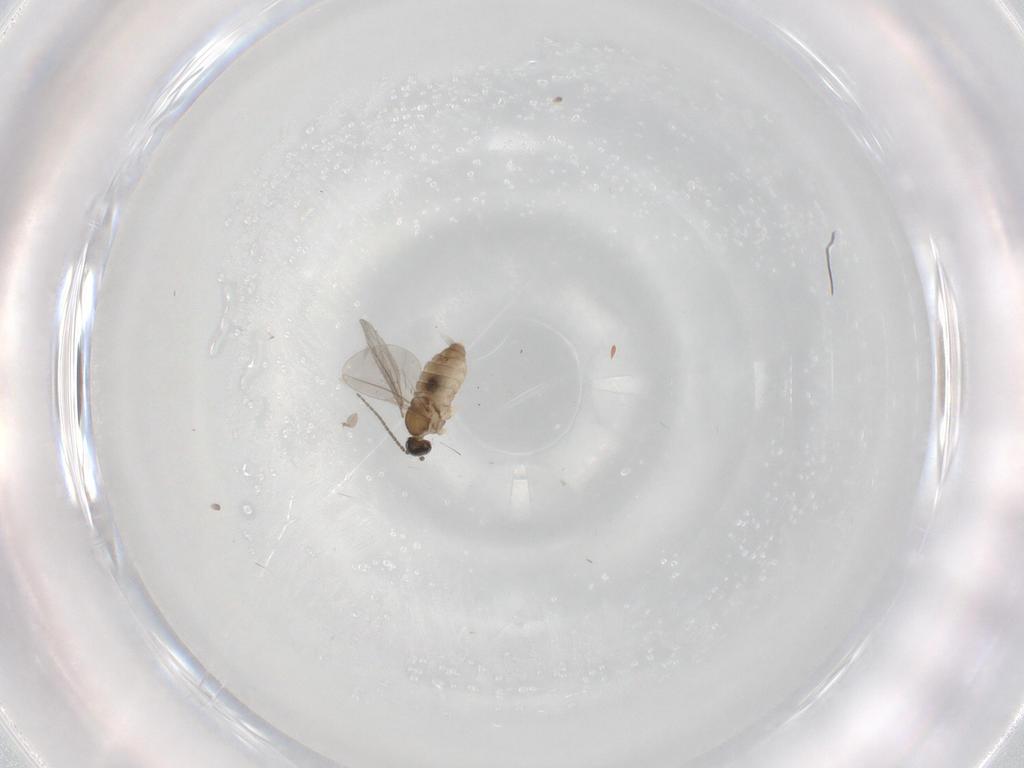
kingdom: Animalia
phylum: Arthropoda
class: Insecta
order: Diptera
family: Cecidomyiidae
